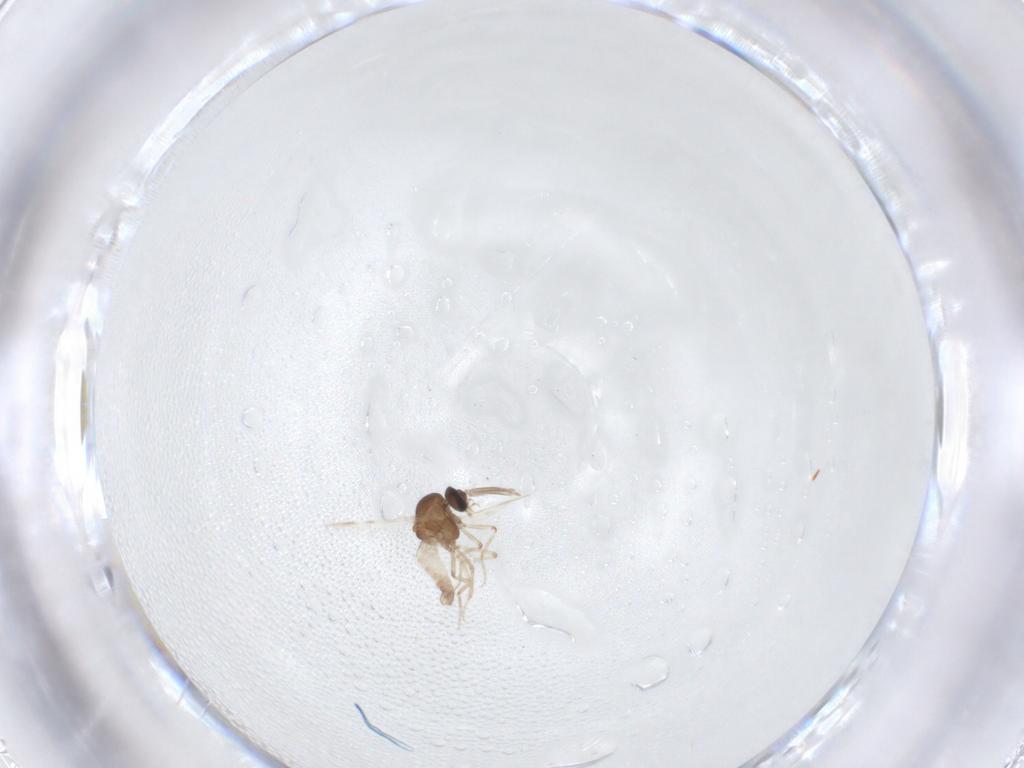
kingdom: Animalia
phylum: Arthropoda
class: Insecta
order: Diptera
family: Ceratopogonidae
